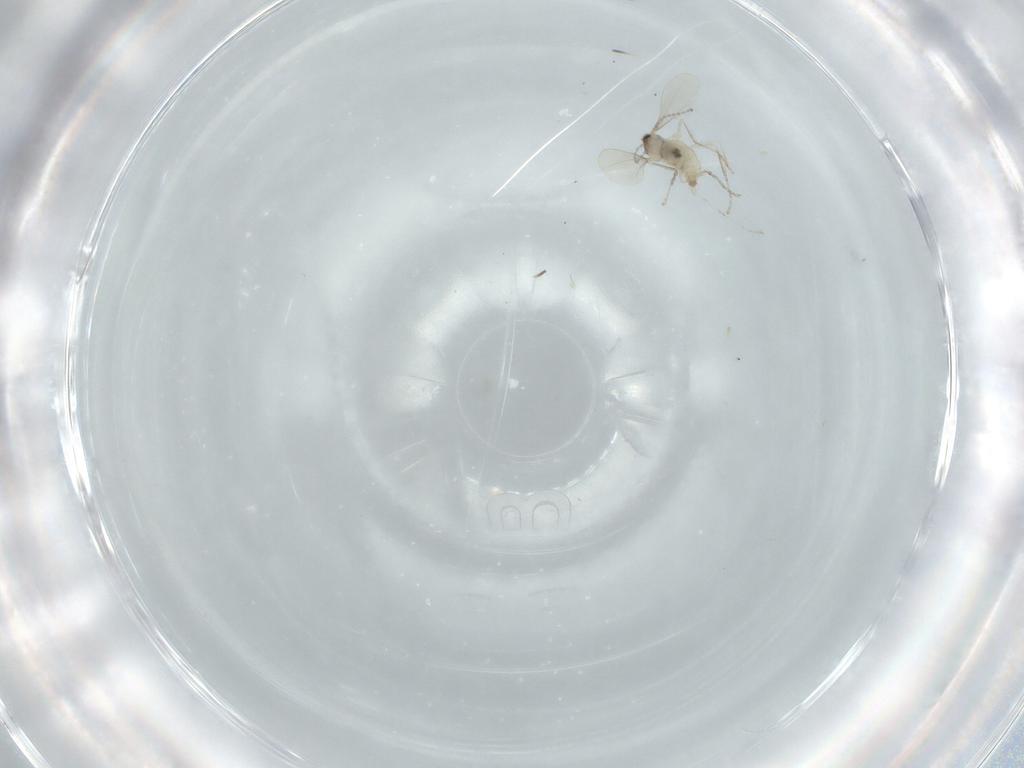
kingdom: Animalia
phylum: Arthropoda
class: Insecta
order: Diptera
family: Cecidomyiidae
